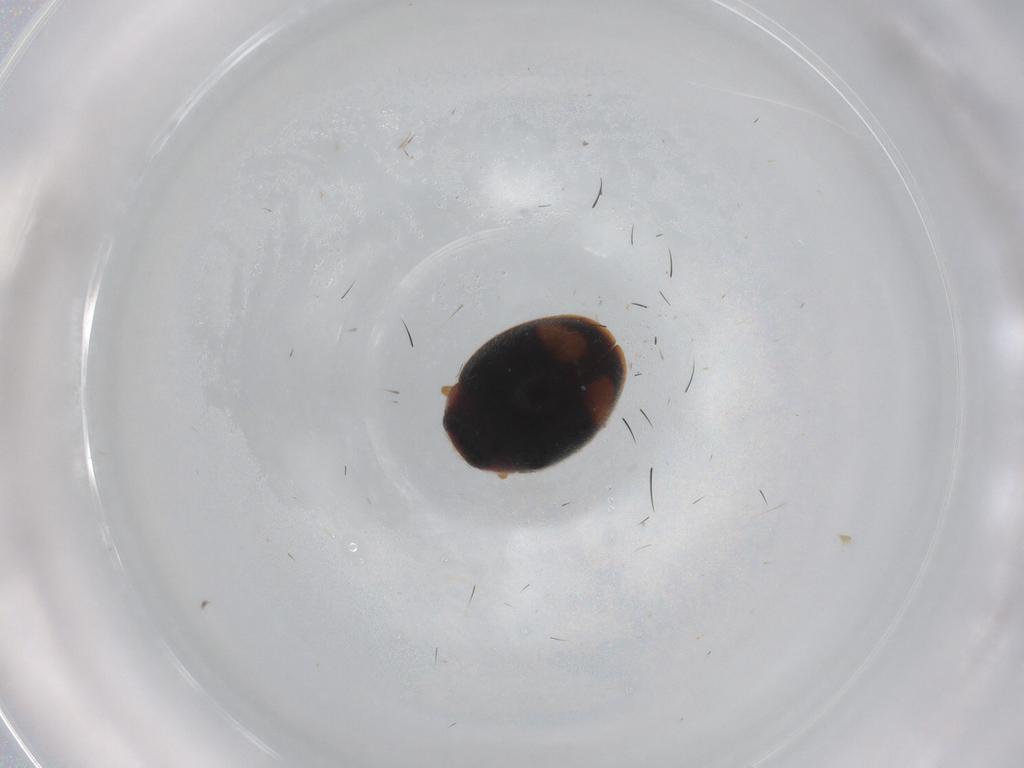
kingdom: Animalia
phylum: Arthropoda
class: Insecta
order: Coleoptera
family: Coccinellidae
